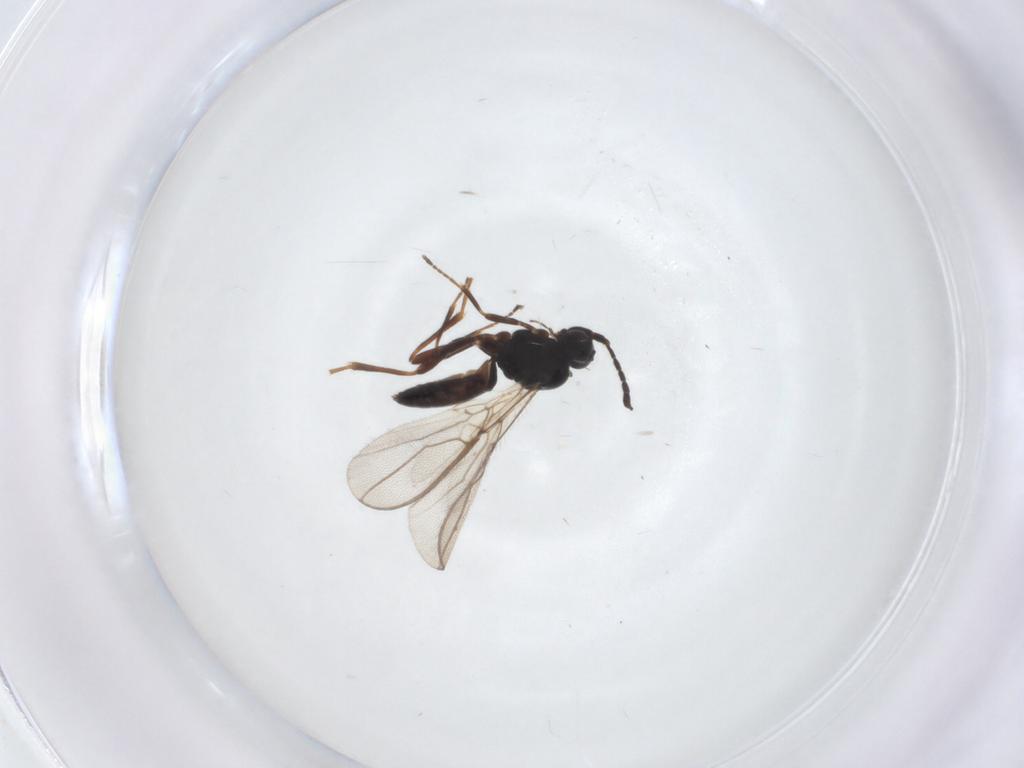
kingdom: Animalia
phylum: Arthropoda
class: Insecta
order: Hymenoptera
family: Braconidae
